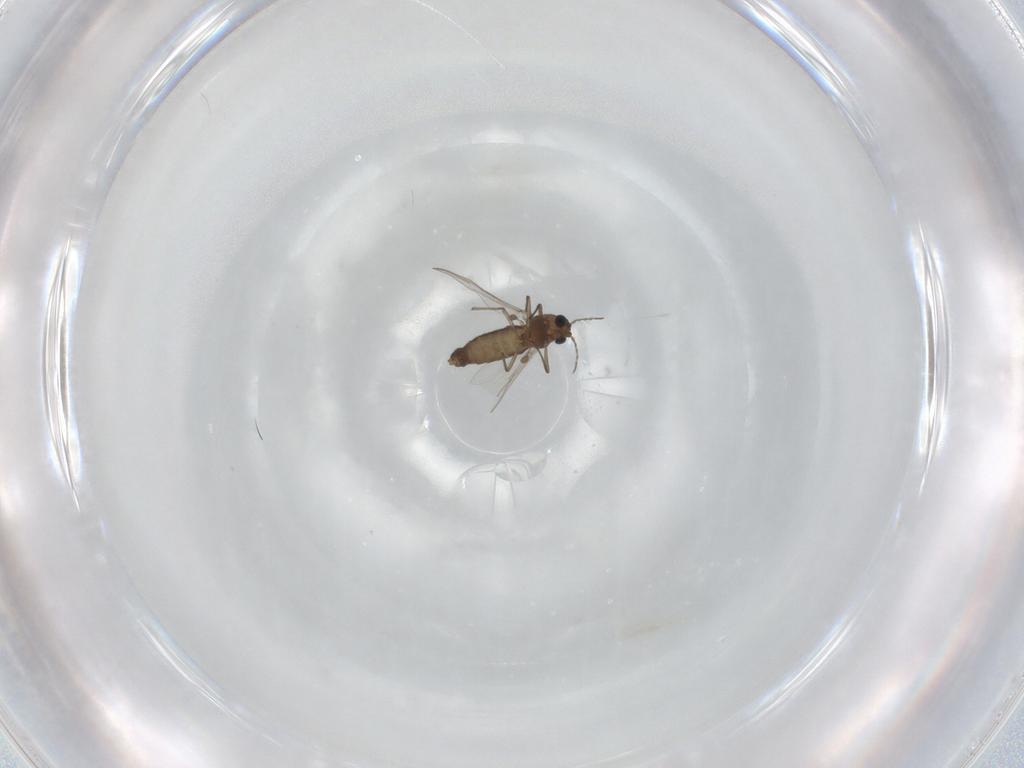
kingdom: Animalia
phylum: Arthropoda
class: Insecta
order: Diptera
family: Chironomidae
